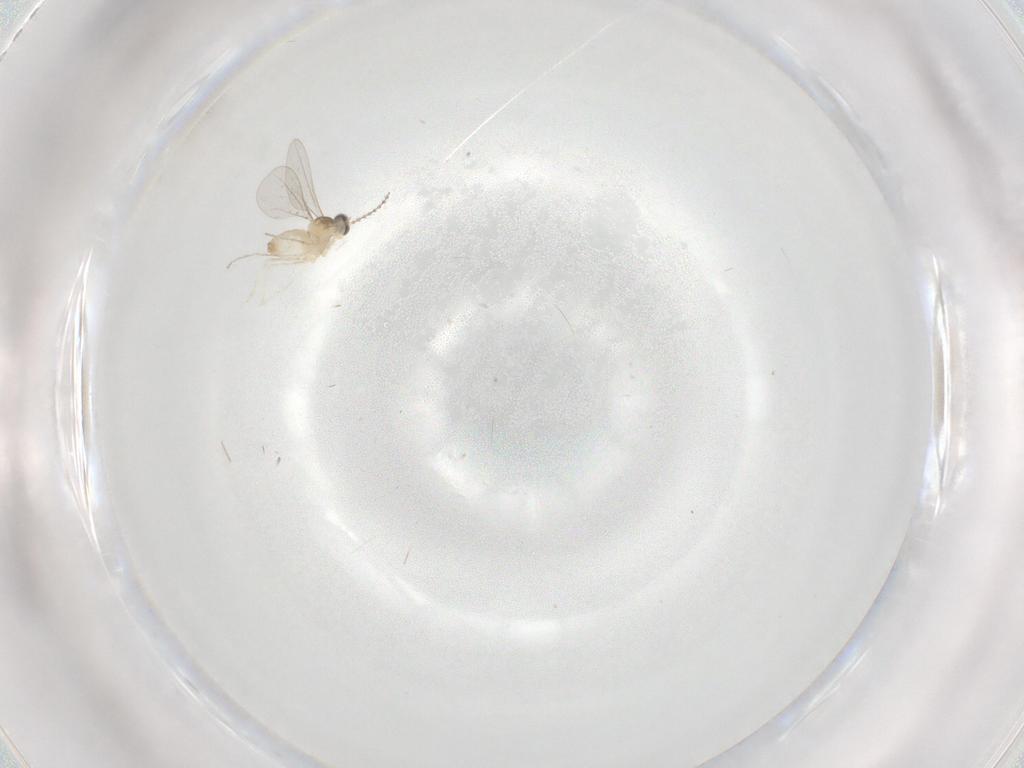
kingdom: Animalia
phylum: Arthropoda
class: Insecta
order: Diptera
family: Cecidomyiidae
